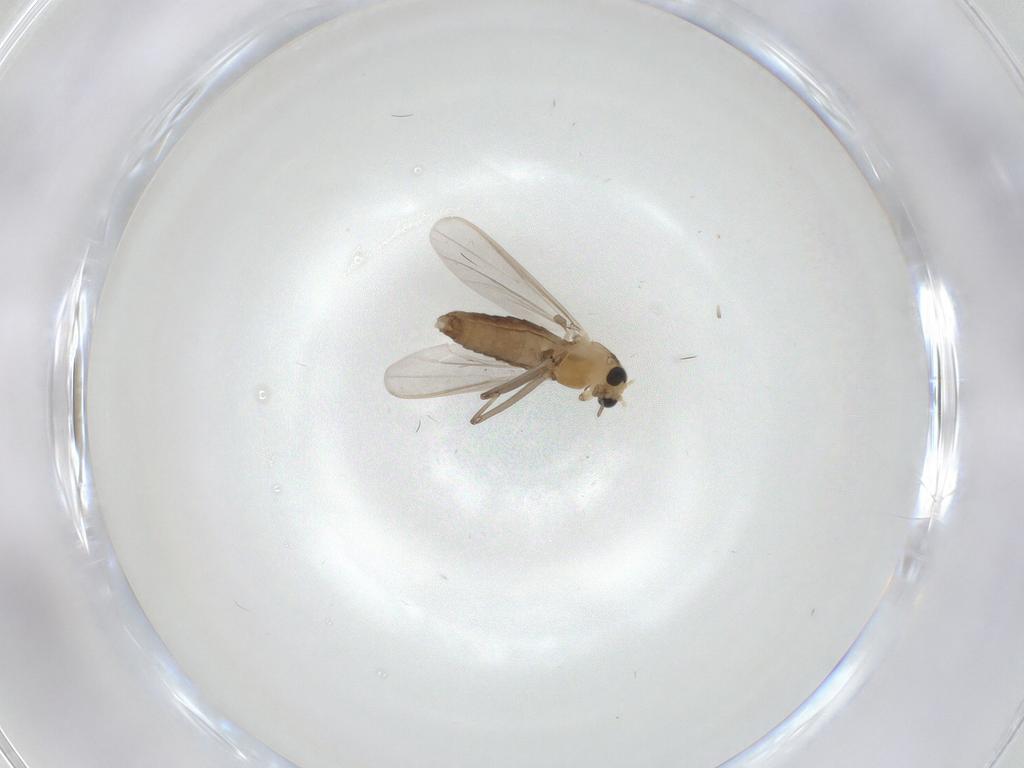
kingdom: Animalia
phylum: Arthropoda
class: Insecta
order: Diptera
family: Chironomidae
